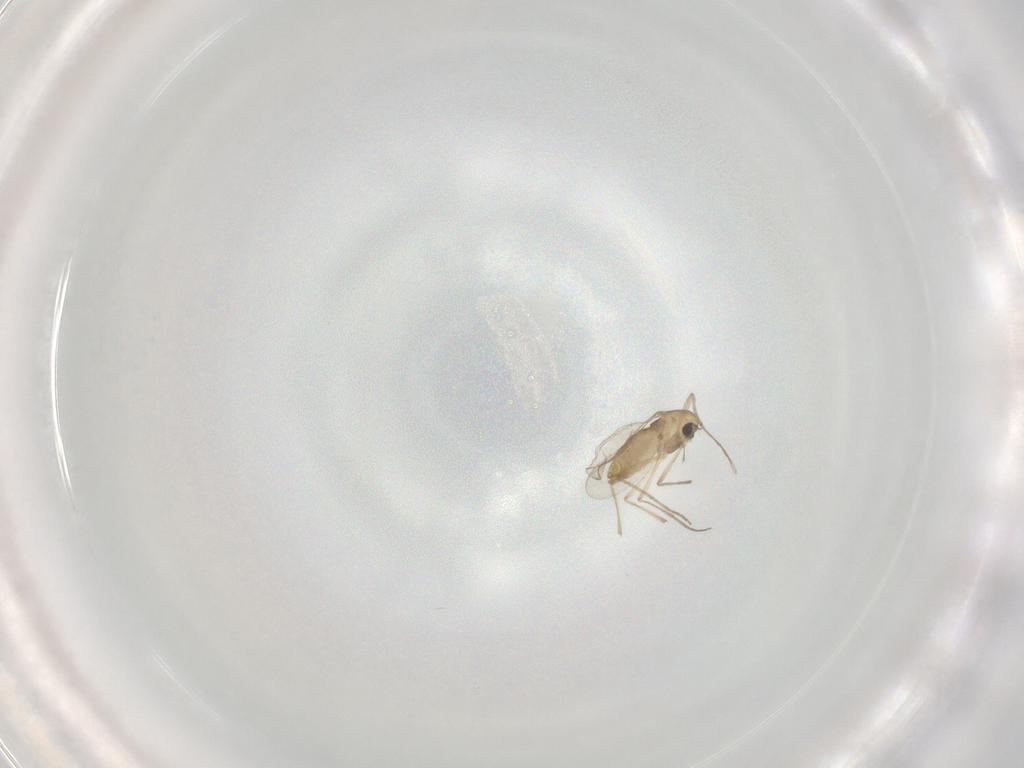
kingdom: Animalia
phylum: Arthropoda
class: Insecta
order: Diptera
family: Chironomidae
